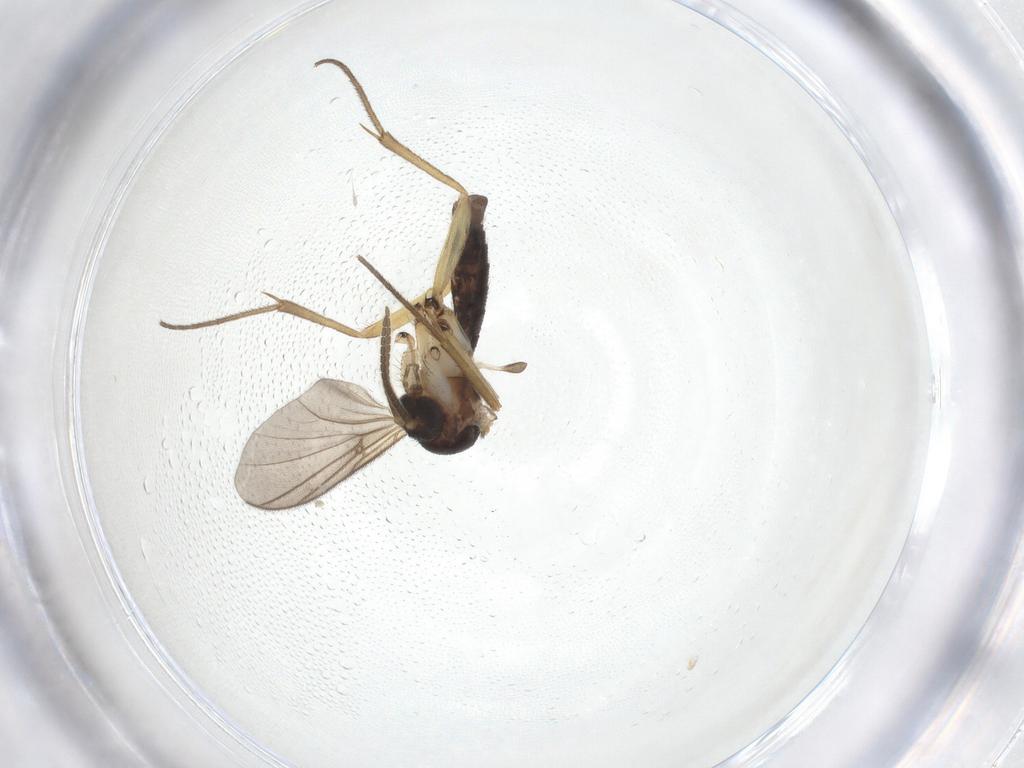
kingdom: Animalia
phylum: Arthropoda
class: Insecta
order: Diptera
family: Mycetophilidae
